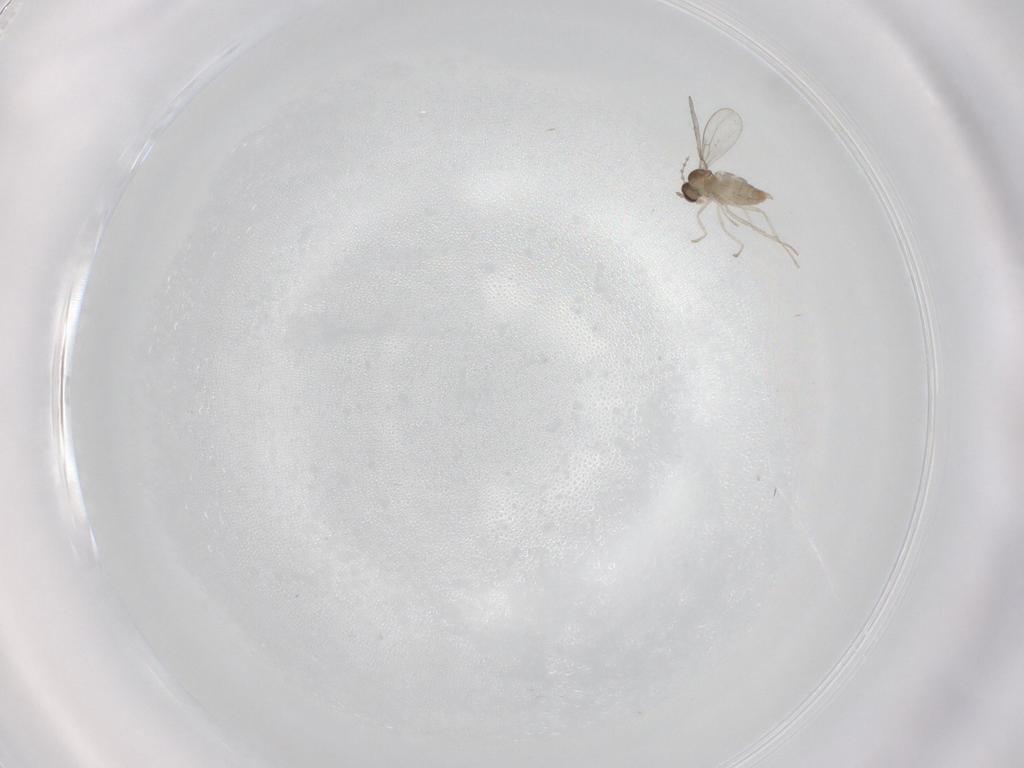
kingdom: Animalia
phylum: Arthropoda
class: Insecta
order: Diptera
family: Cecidomyiidae
